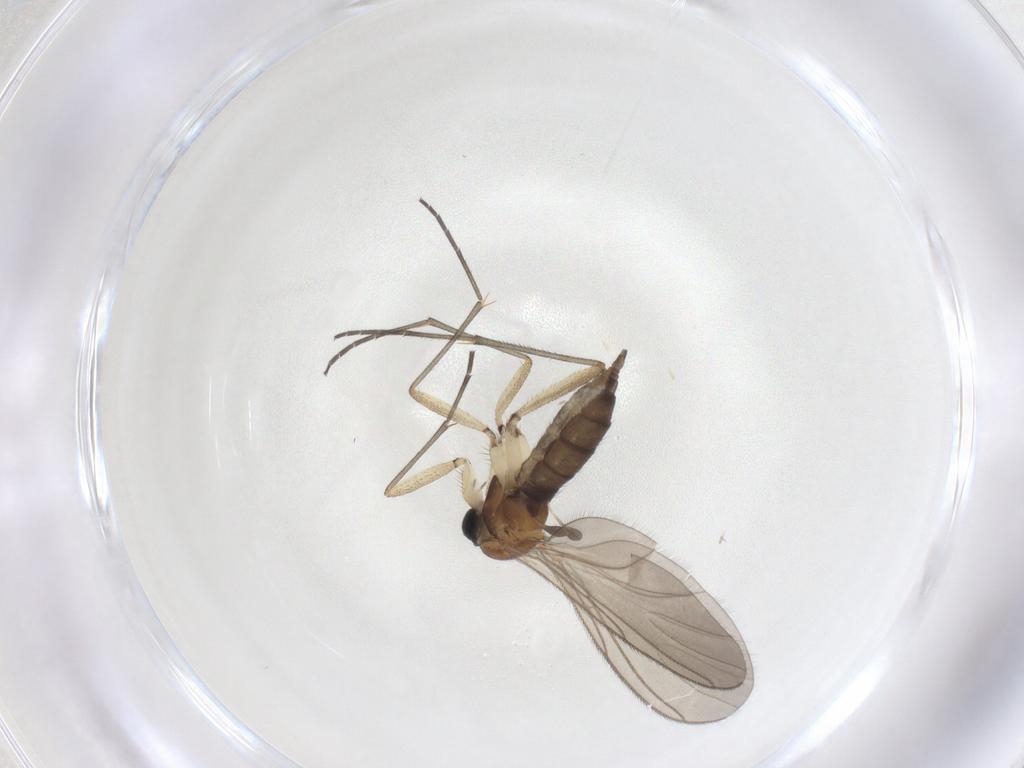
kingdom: Animalia
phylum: Arthropoda
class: Insecta
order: Diptera
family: Sciaridae
